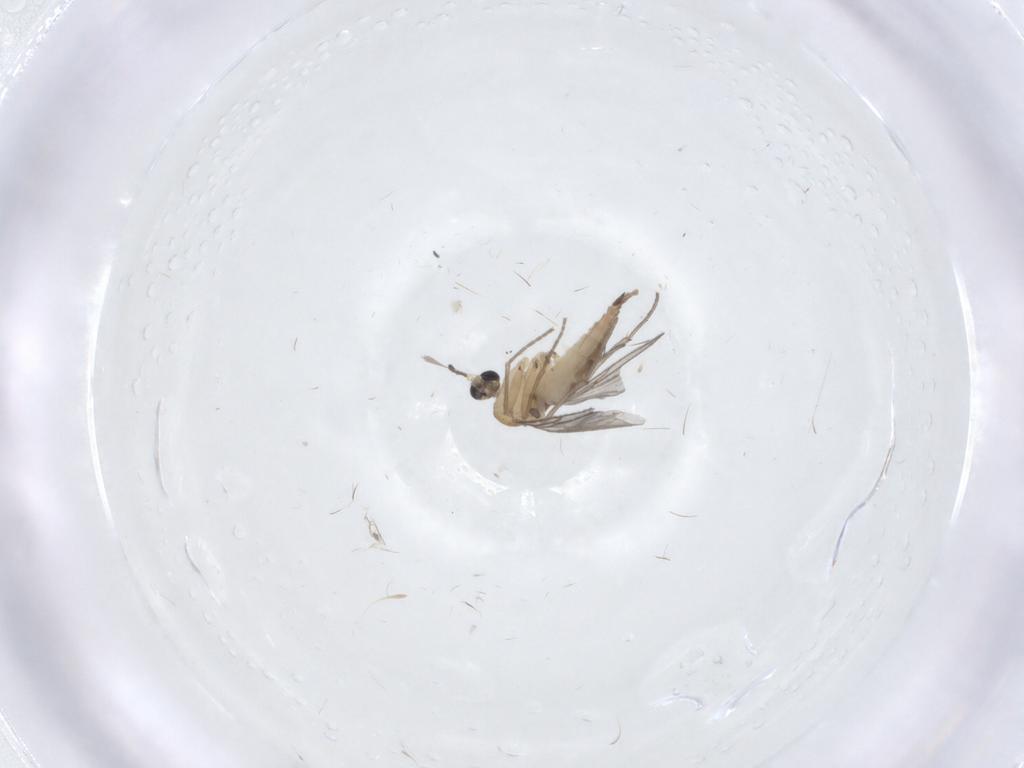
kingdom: Animalia
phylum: Arthropoda
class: Insecta
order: Diptera
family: Sciaridae
